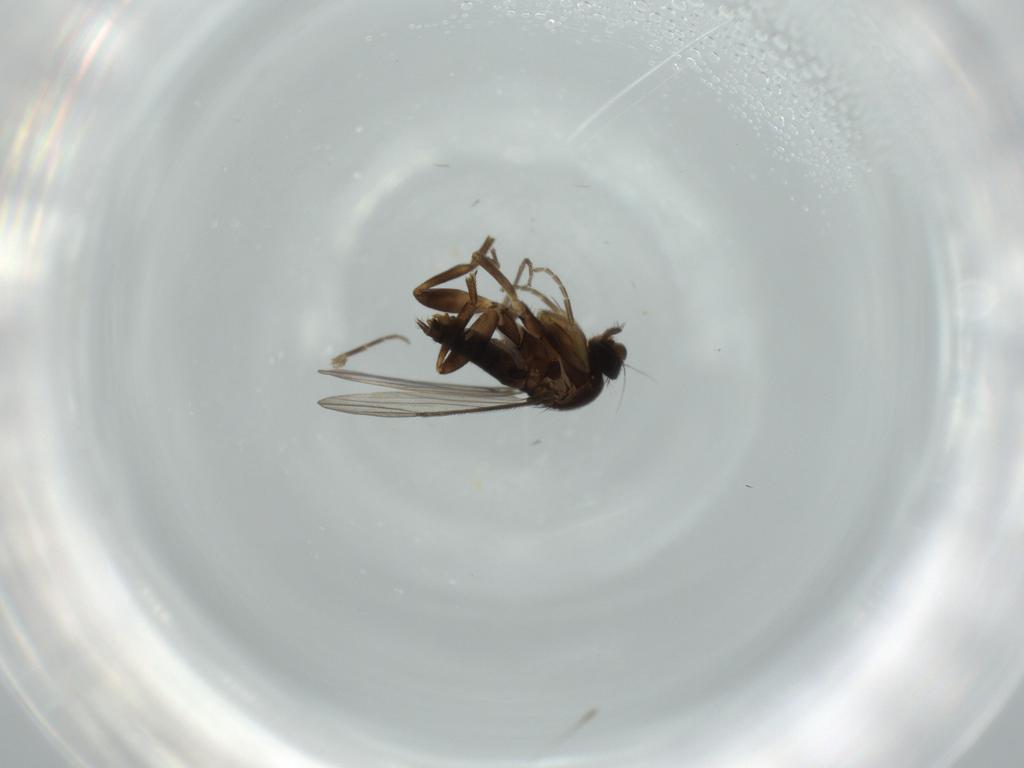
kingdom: Animalia
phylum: Arthropoda
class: Insecta
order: Diptera
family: Phoridae
